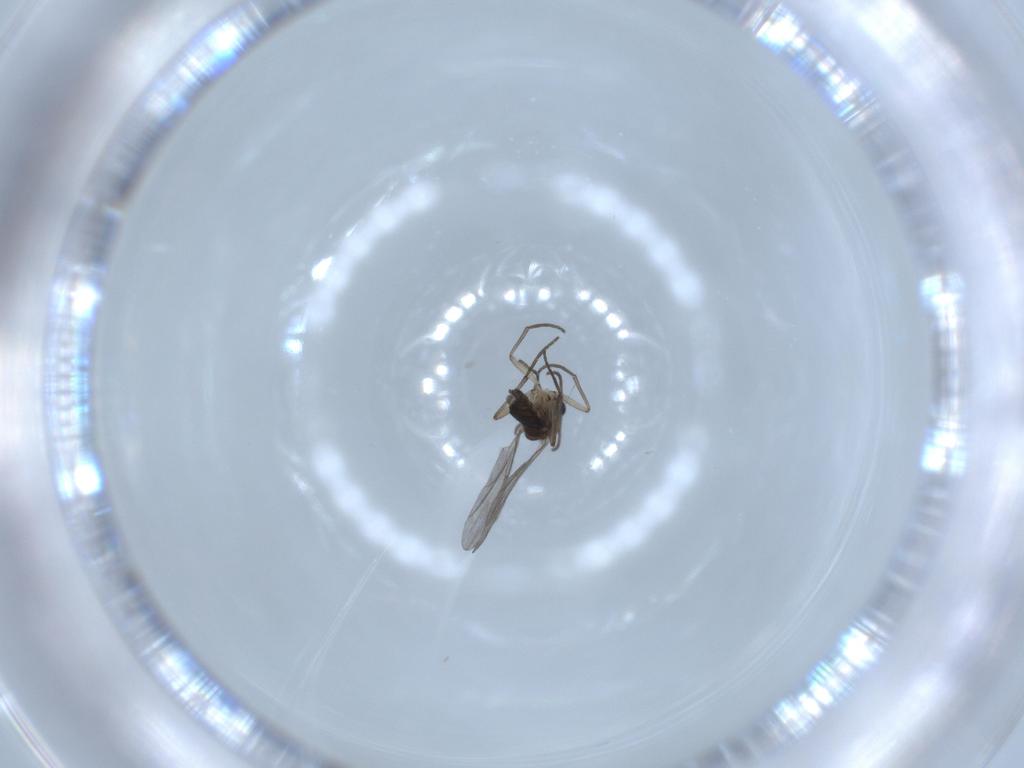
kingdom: Animalia
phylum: Arthropoda
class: Insecta
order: Diptera
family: Sciaridae
